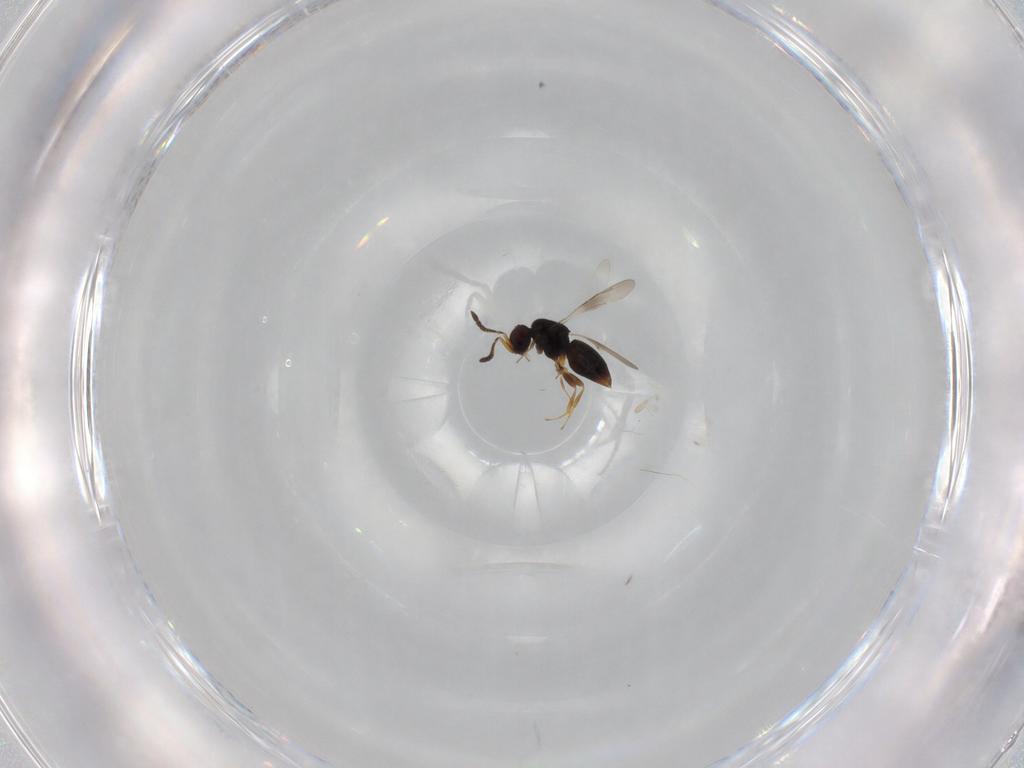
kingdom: Animalia
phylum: Arthropoda
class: Insecta
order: Hymenoptera
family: Ceraphronidae
